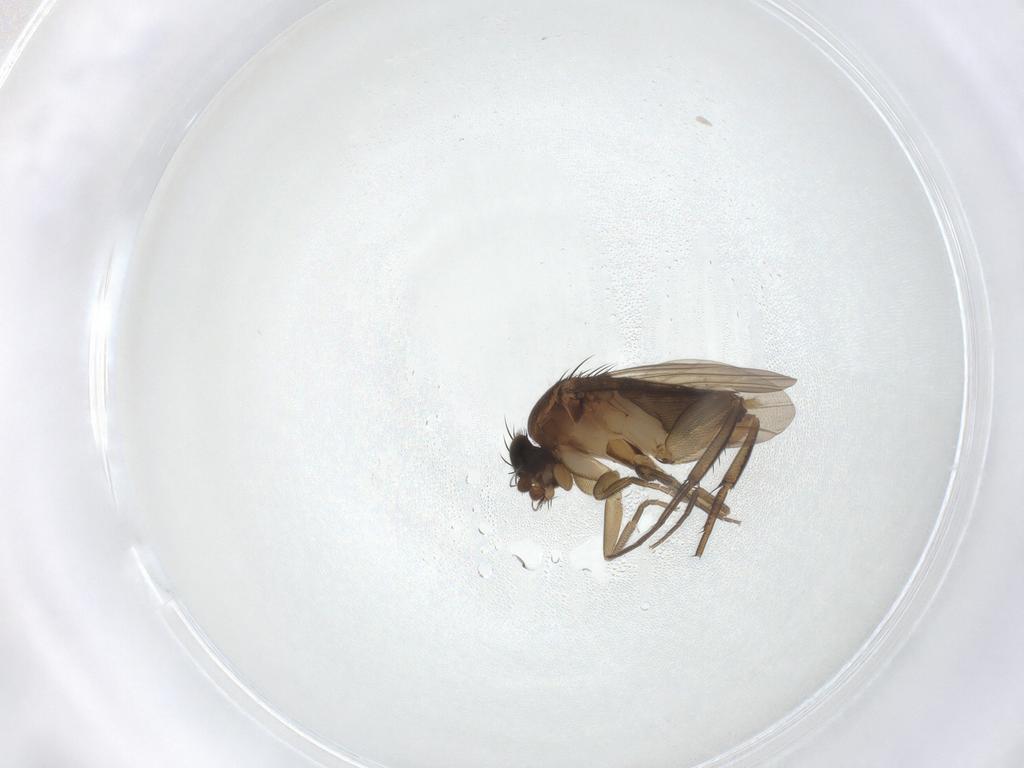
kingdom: Animalia
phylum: Arthropoda
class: Insecta
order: Diptera
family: Phoridae
